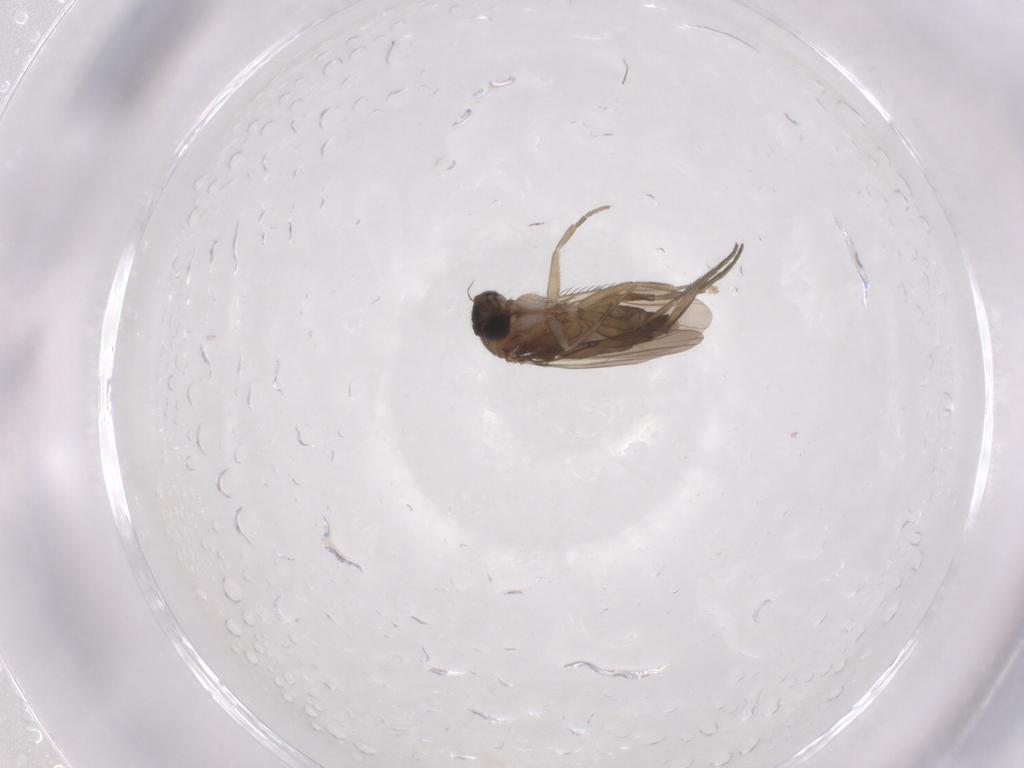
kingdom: Animalia
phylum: Arthropoda
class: Insecta
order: Diptera
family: Phoridae
